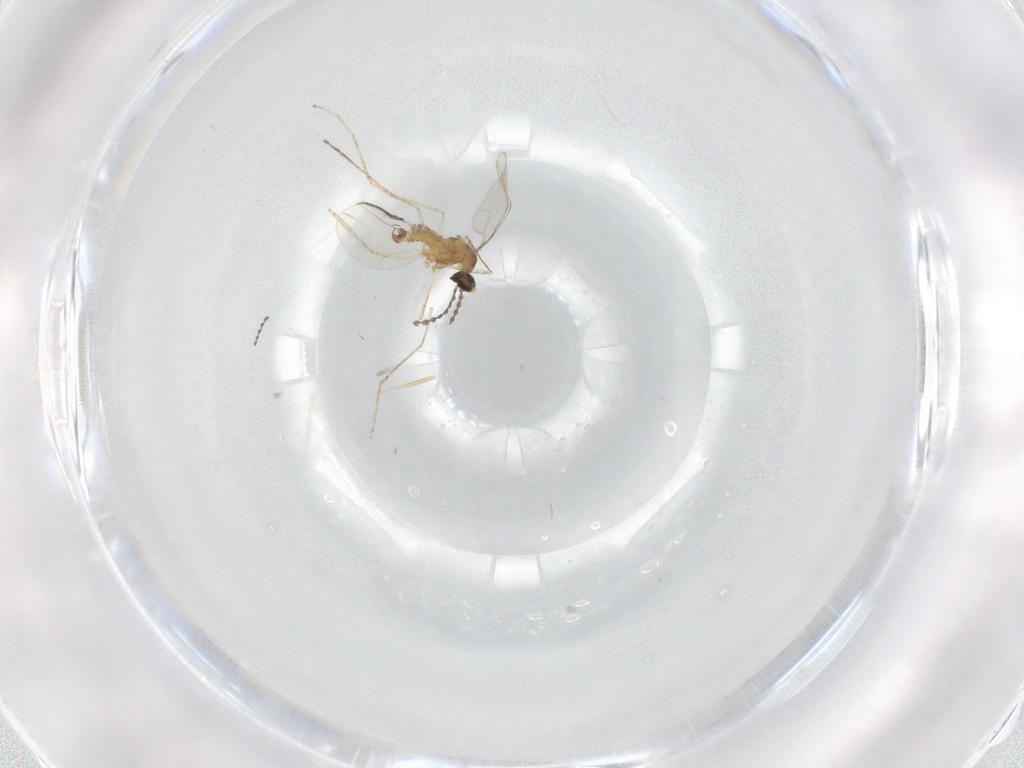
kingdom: Animalia
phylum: Arthropoda
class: Insecta
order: Diptera
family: Cecidomyiidae
